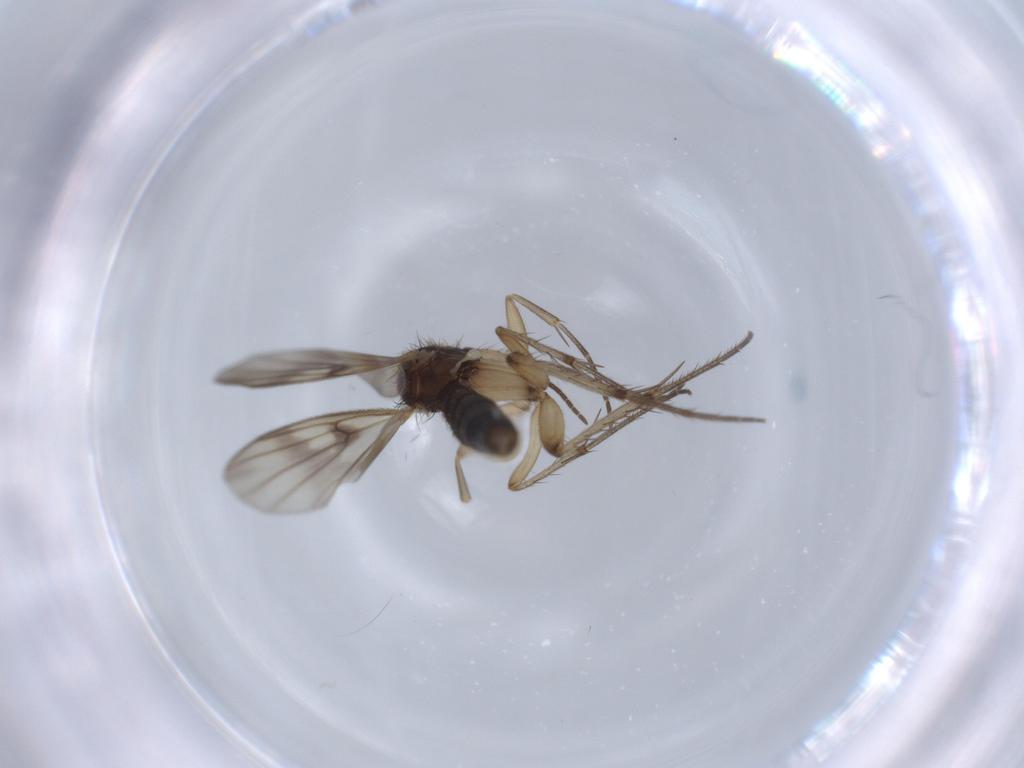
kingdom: Animalia
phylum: Arthropoda
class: Insecta
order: Diptera
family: Mycetophilidae
